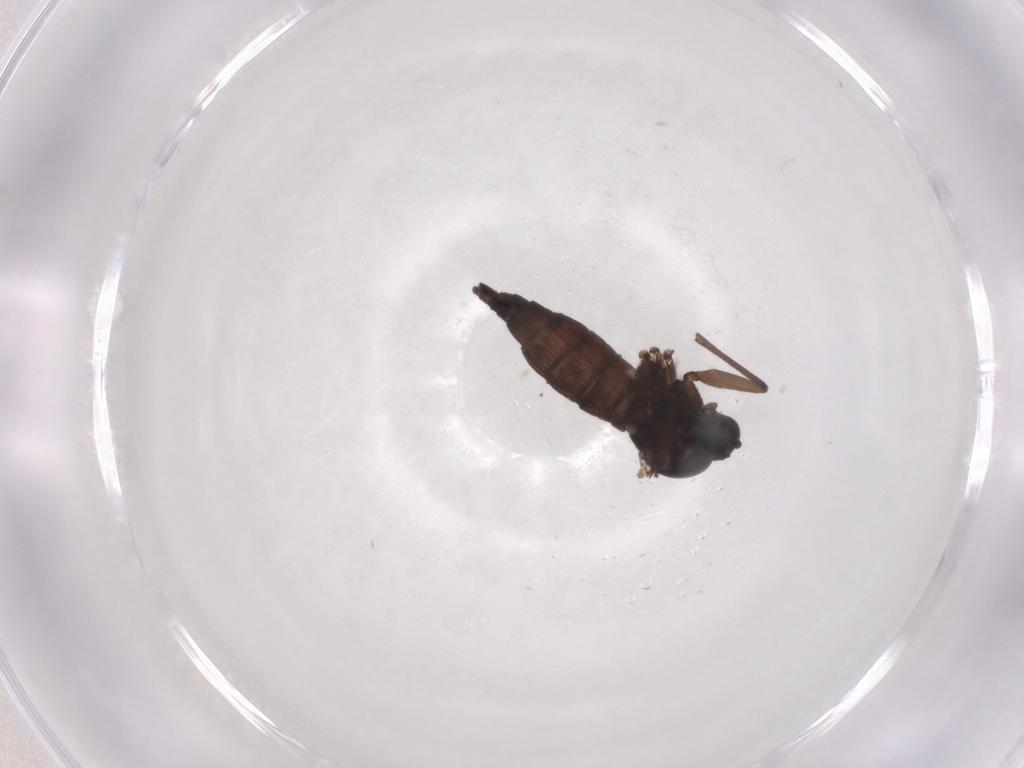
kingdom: Animalia
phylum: Arthropoda
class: Insecta
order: Diptera
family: Sciaridae
